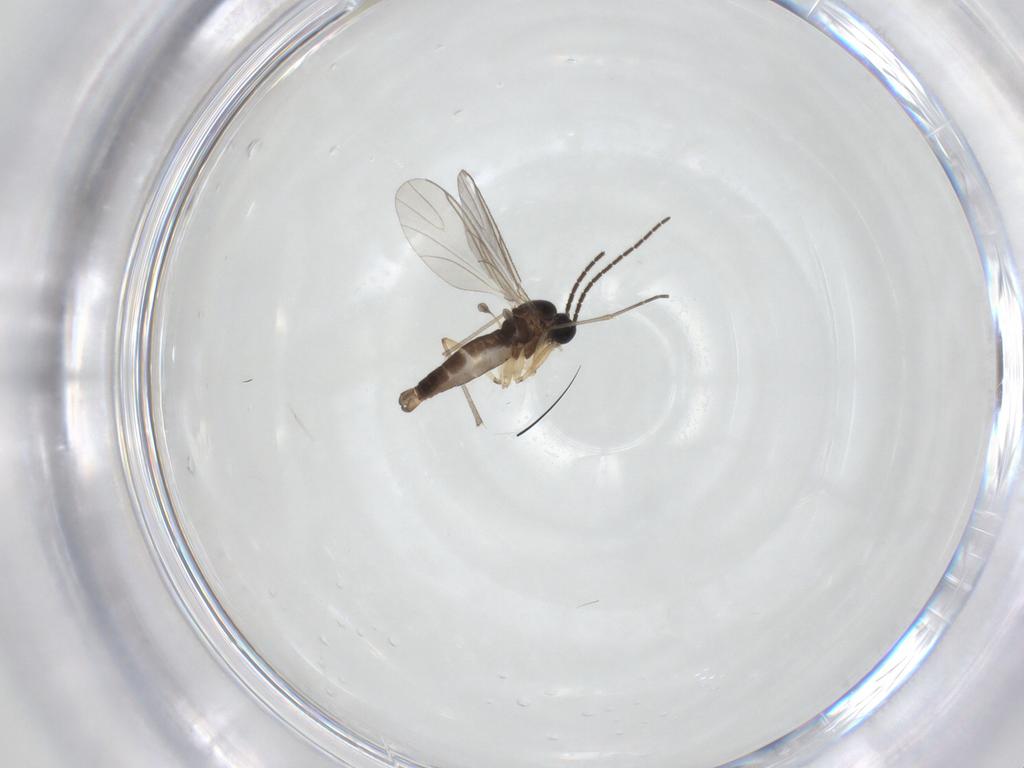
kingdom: Animalia
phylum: Arthropoda
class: Insecta
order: Diptera
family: Sciaridae
